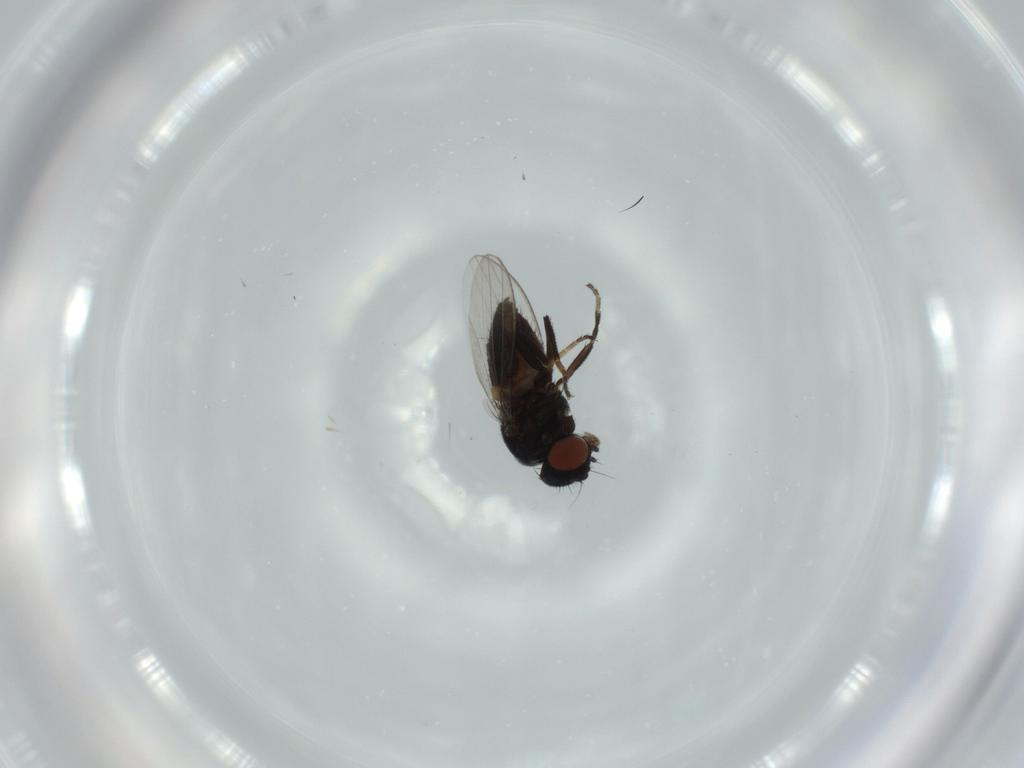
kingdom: Animalia
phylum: Arthropoda
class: Insecta
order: Diptera
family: Milichiidae
